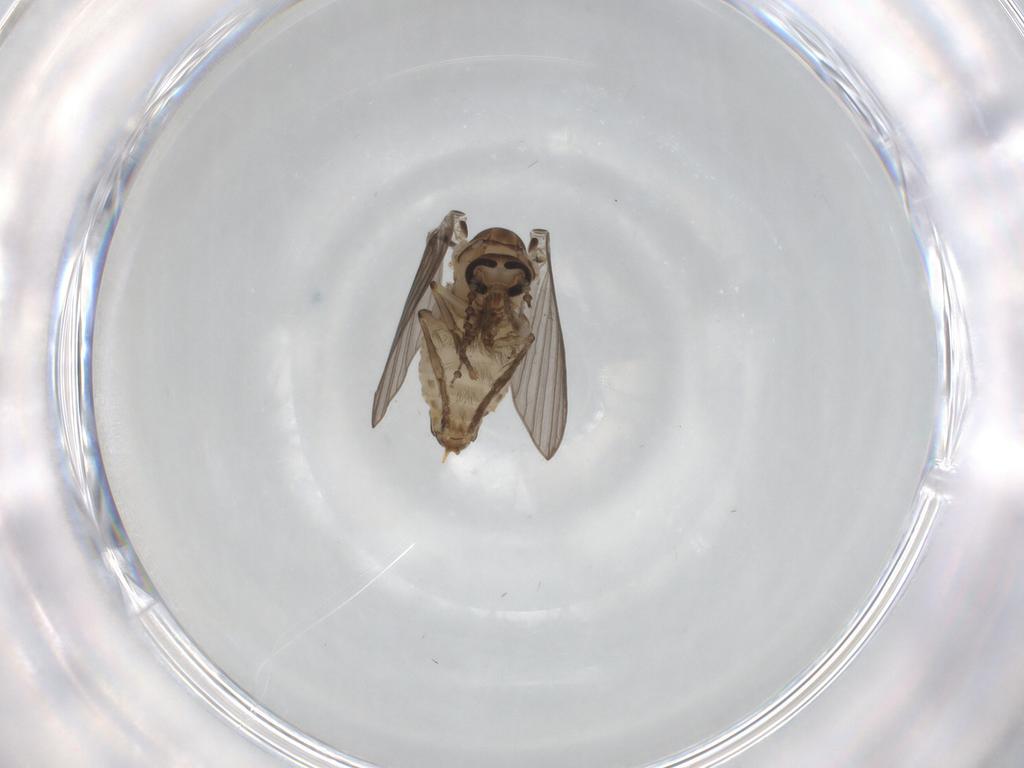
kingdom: Animalia
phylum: Arthropoda
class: Insecta
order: Diptera
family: Psychodidae
